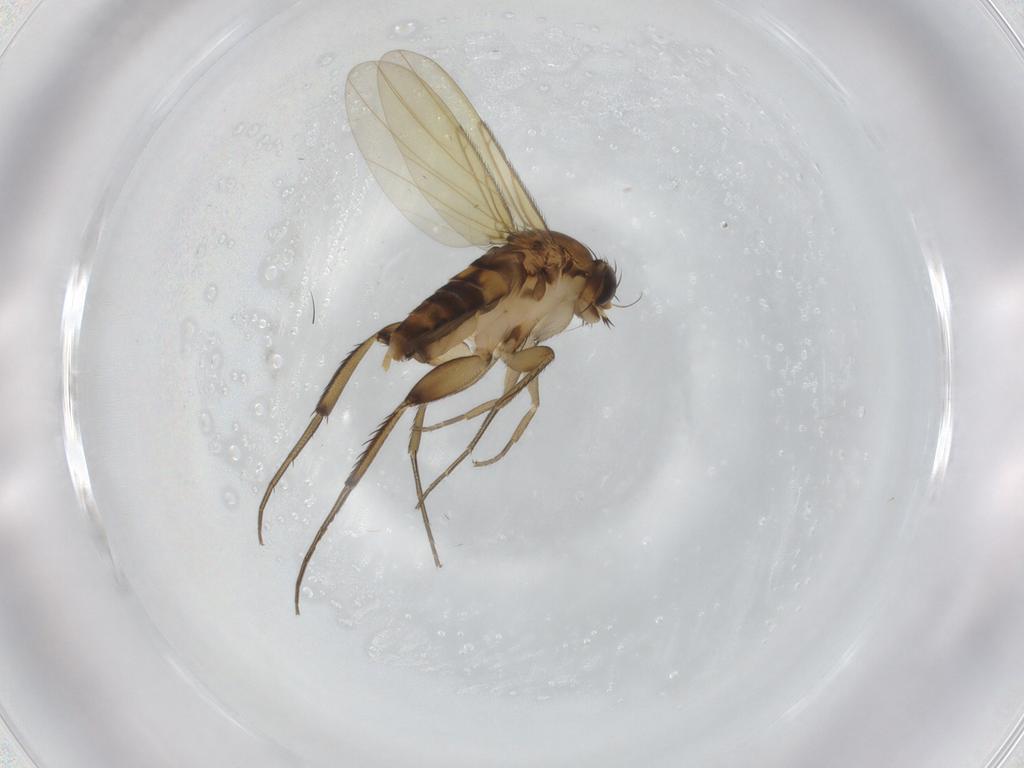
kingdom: Animalia
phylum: Arthropoda
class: Insecta
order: Diptera
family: Phoridae
